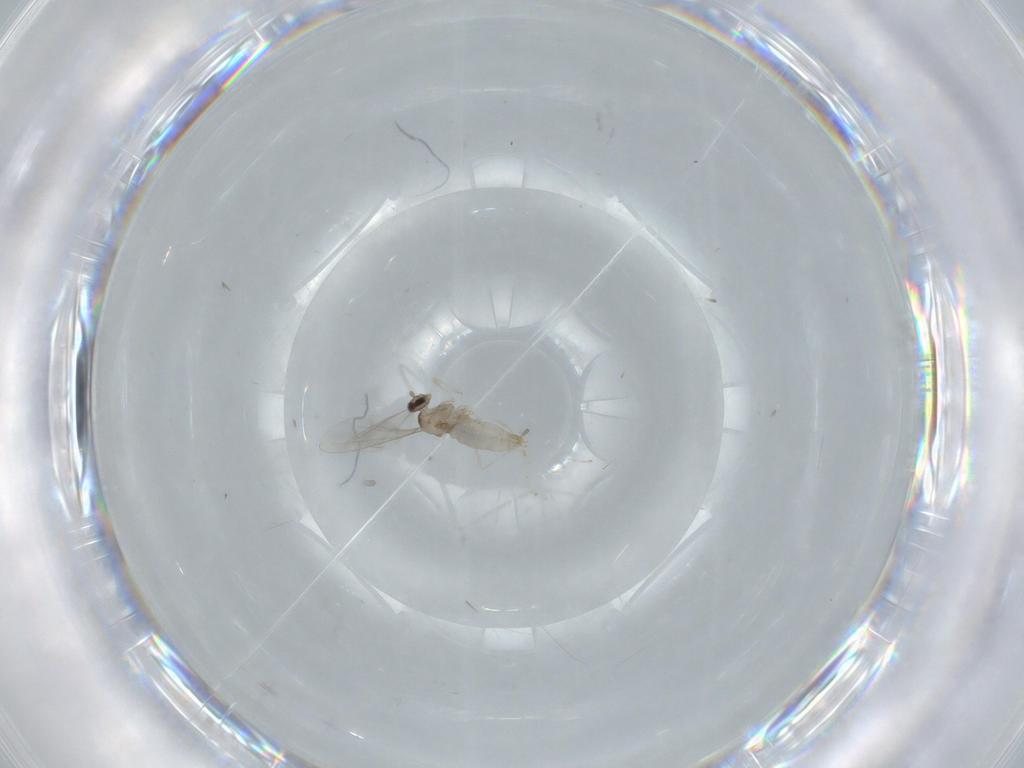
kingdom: Animalia
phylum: Arthropoda
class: Insecta
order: Diptera
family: Cecidomyiidae
